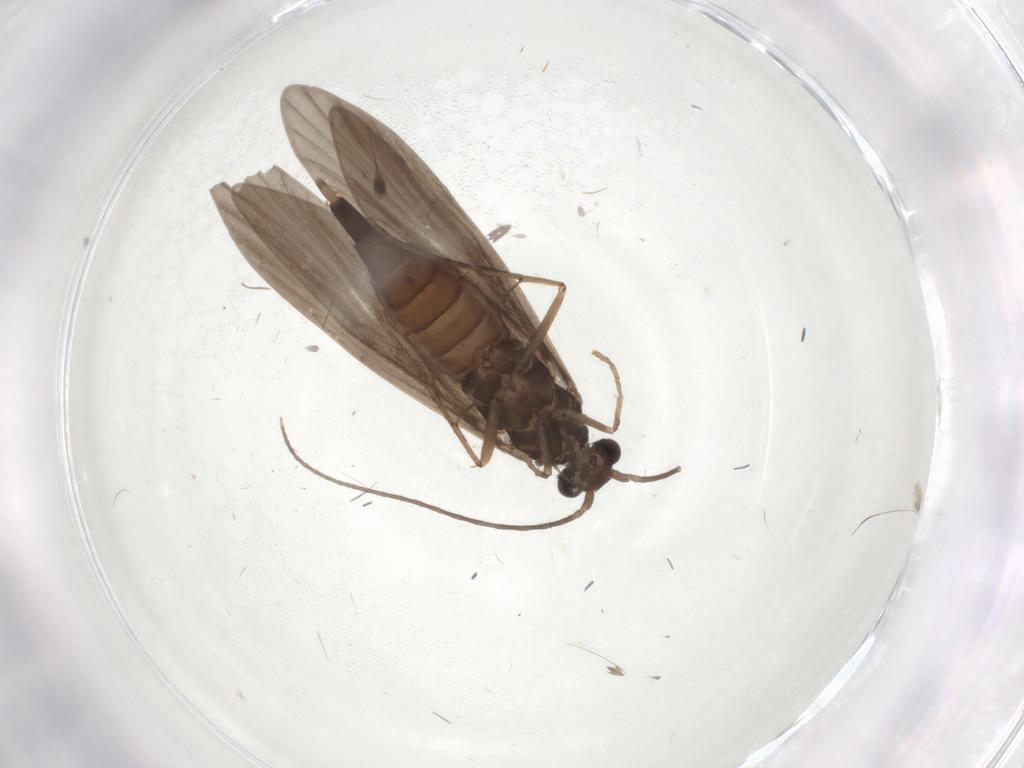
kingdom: Animalia
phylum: Arthropoda
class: Insecta
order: Trichoptera
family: Xiphocentronidae
